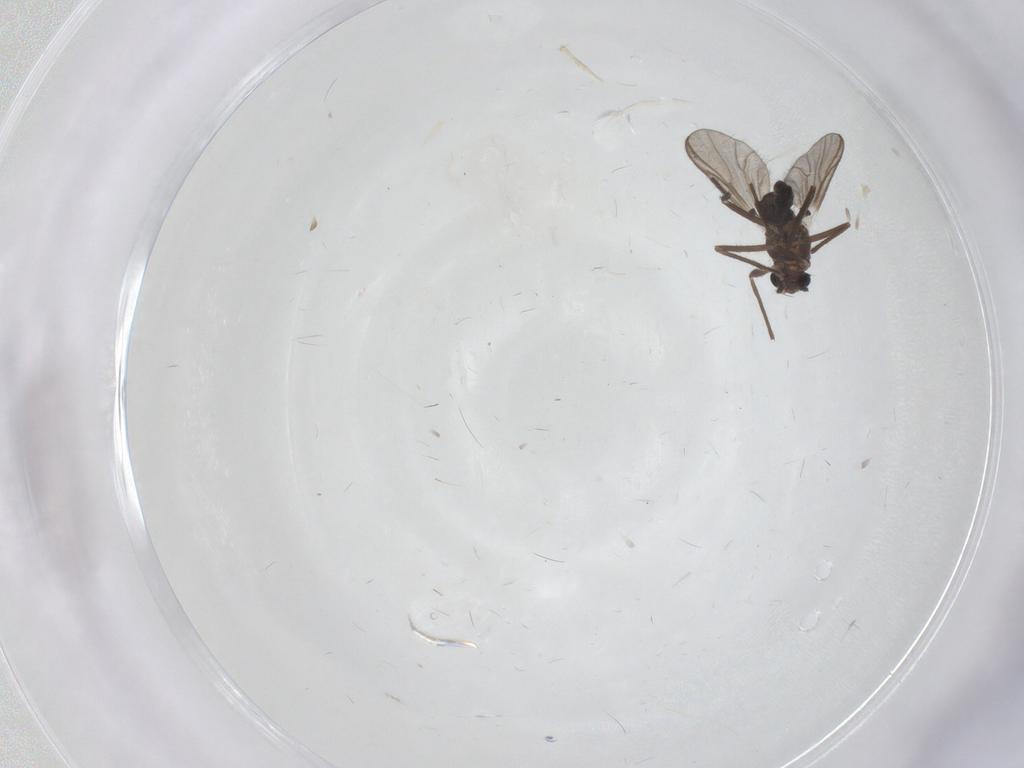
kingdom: Animalia
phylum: Arthropoda
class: Insecta
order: Diptera
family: Chironomidae
